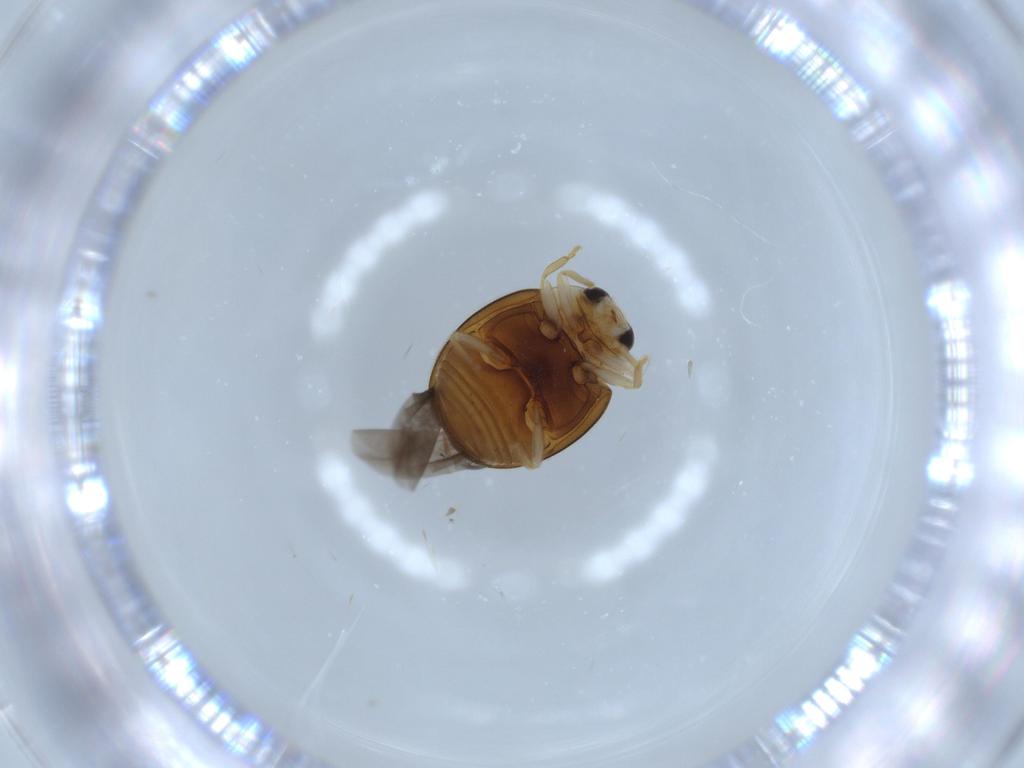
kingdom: Animalia
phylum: Arthropoda
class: Insecta
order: Coleoptera
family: Coccinellidae
